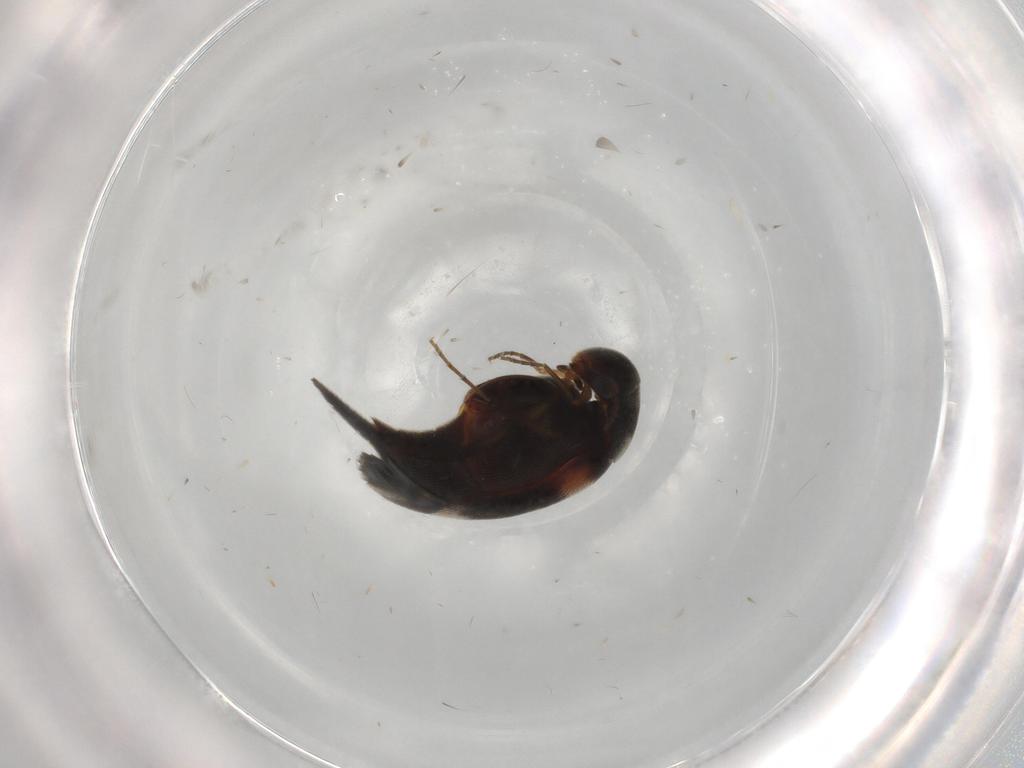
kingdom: Animalia
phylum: Arthropoda
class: Insecta
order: Coleoptera
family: Mordellidae
